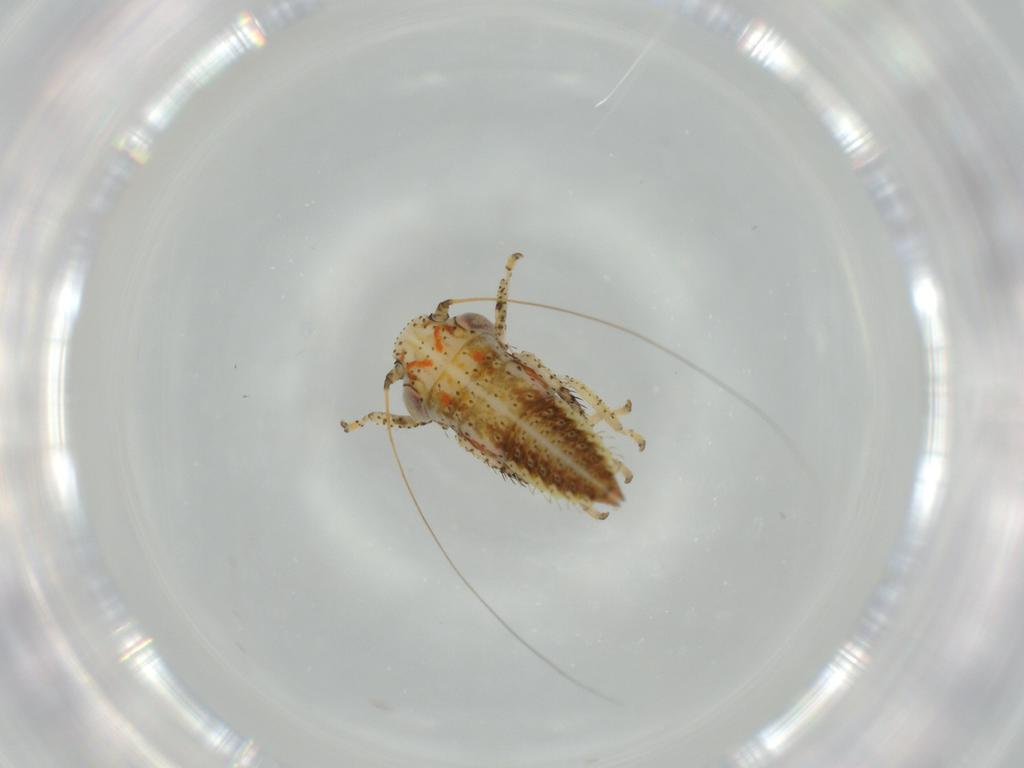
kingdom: Animalia
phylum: Arthropoda
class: Insecta
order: Hemiptera
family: Cicadellidae
